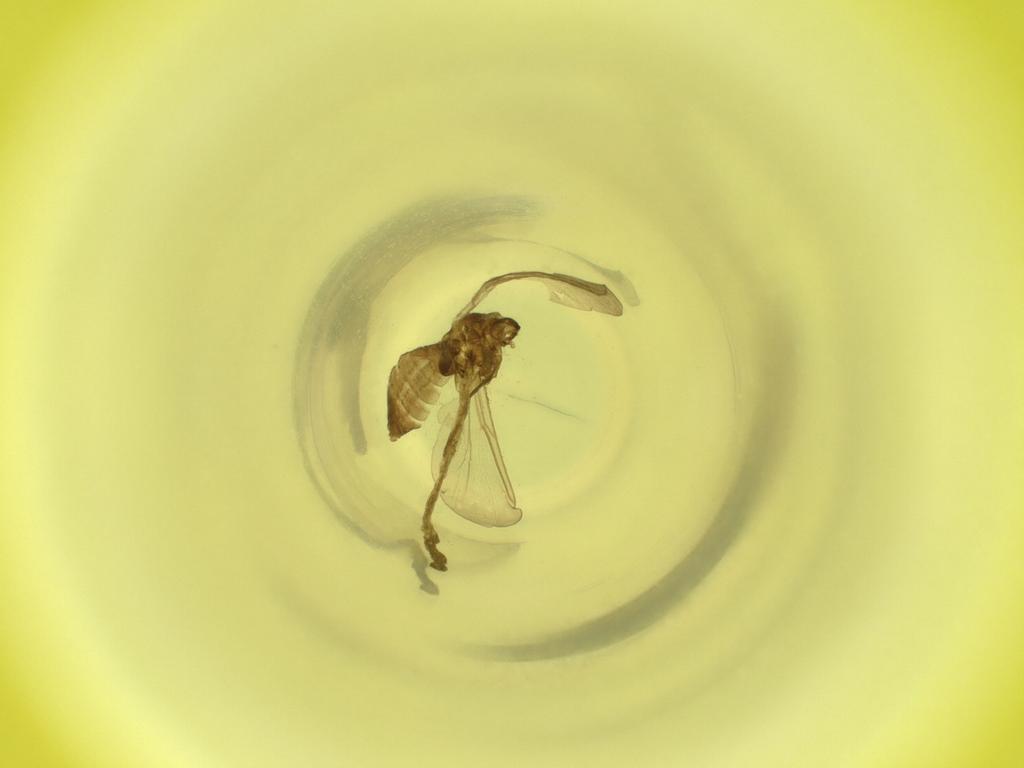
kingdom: Animalia
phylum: Arthropoda
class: Insecta
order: Diptera
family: Cecidomyiidae
